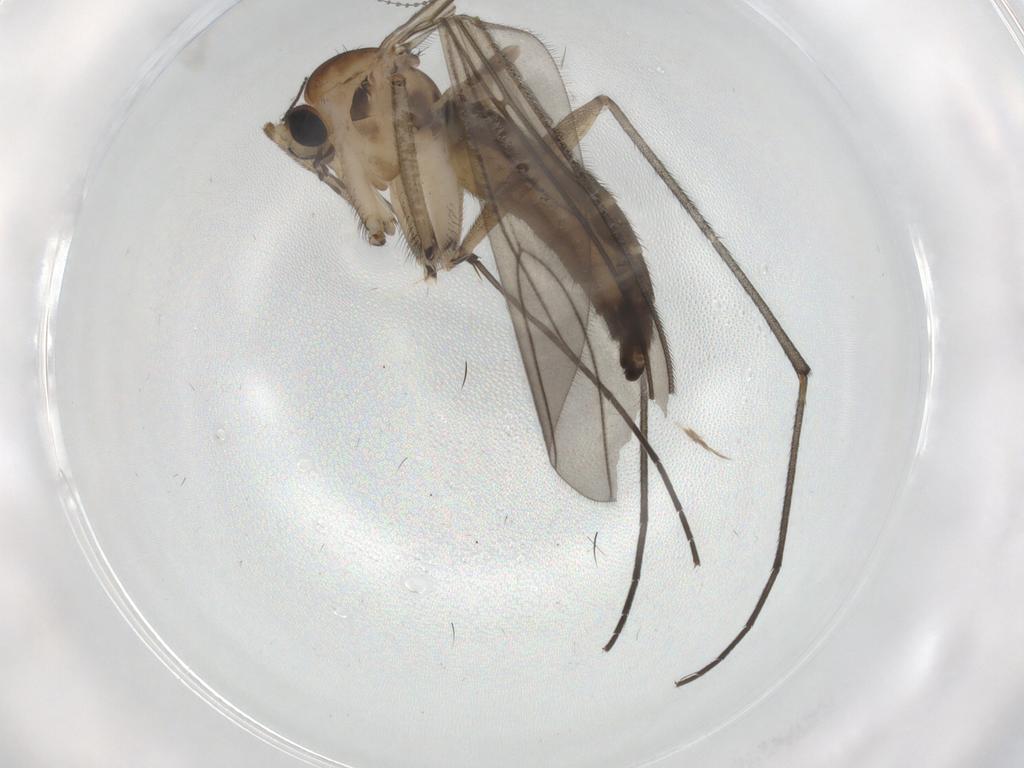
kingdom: Animalia
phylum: Arthropoda
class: Insecta
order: Diptera
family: Sciaridae
